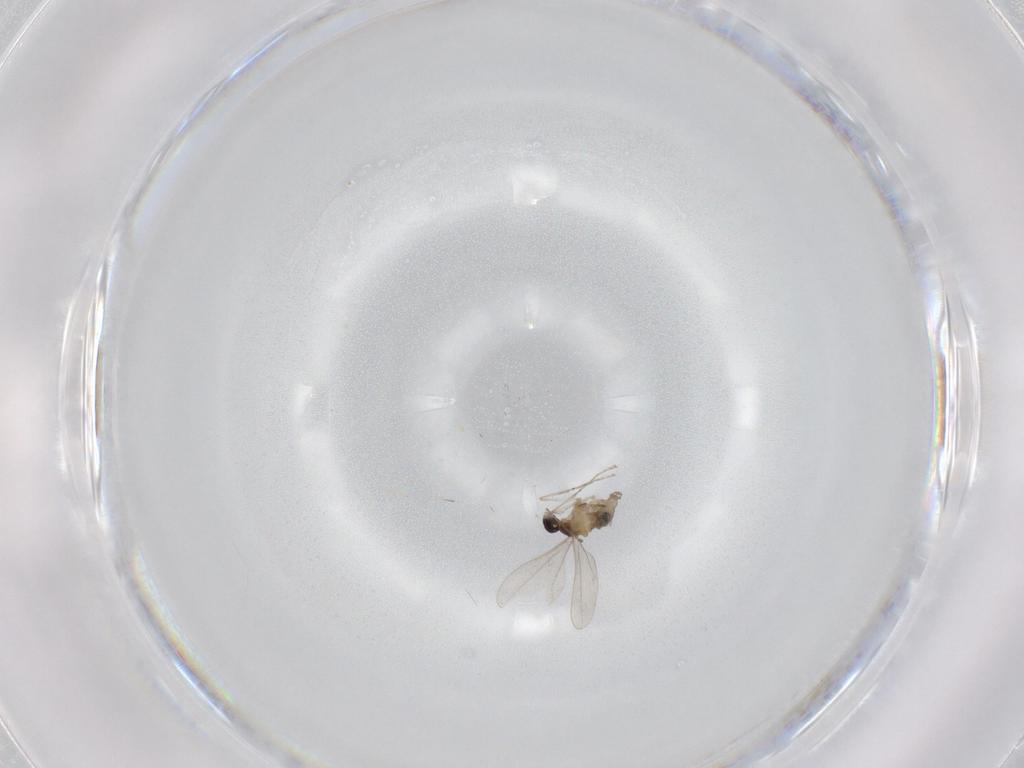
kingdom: Animalia
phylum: Arthropoda
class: Insecta
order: Diptera
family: Cecidomyiidae
